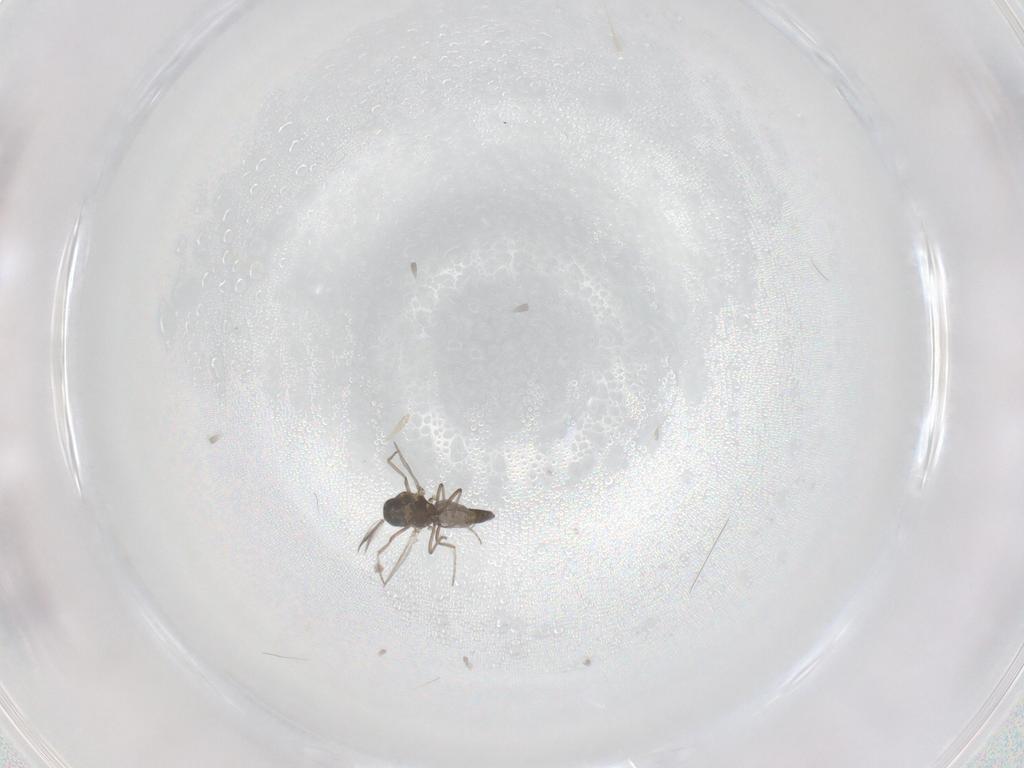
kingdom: Animalia
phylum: Arthropoda
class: Insecta
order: Diptera
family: Ceratopogonidae
